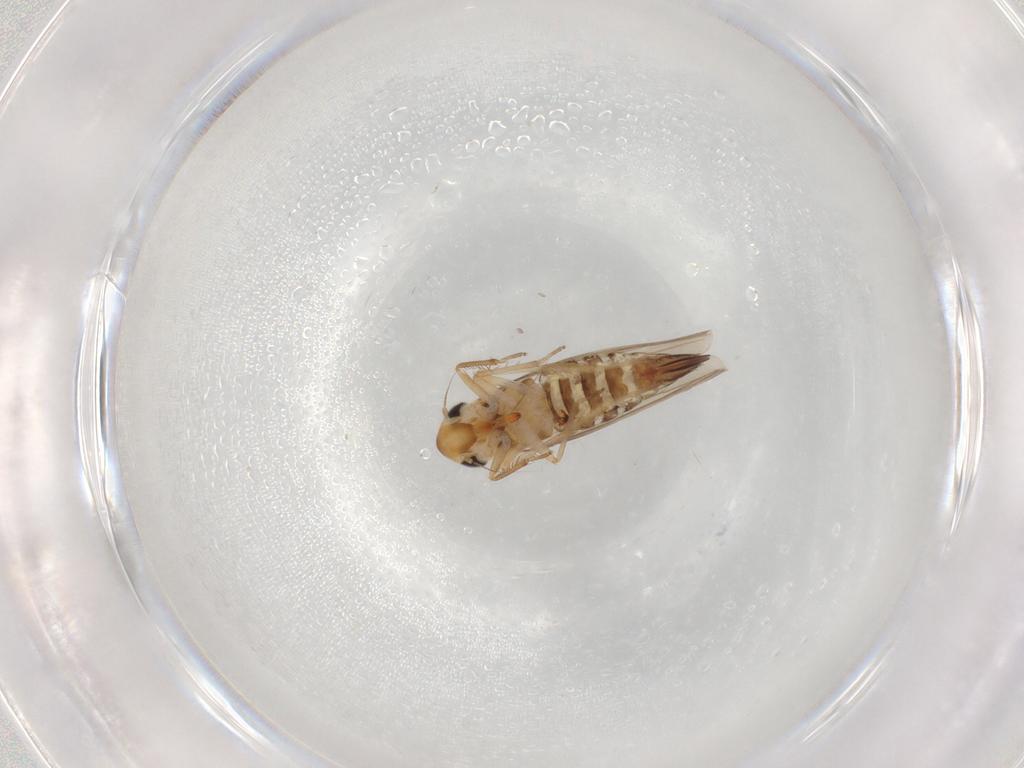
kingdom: Animalia
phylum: Arthropoda
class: Insecta
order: Hemiptera
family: Cicadellidae
